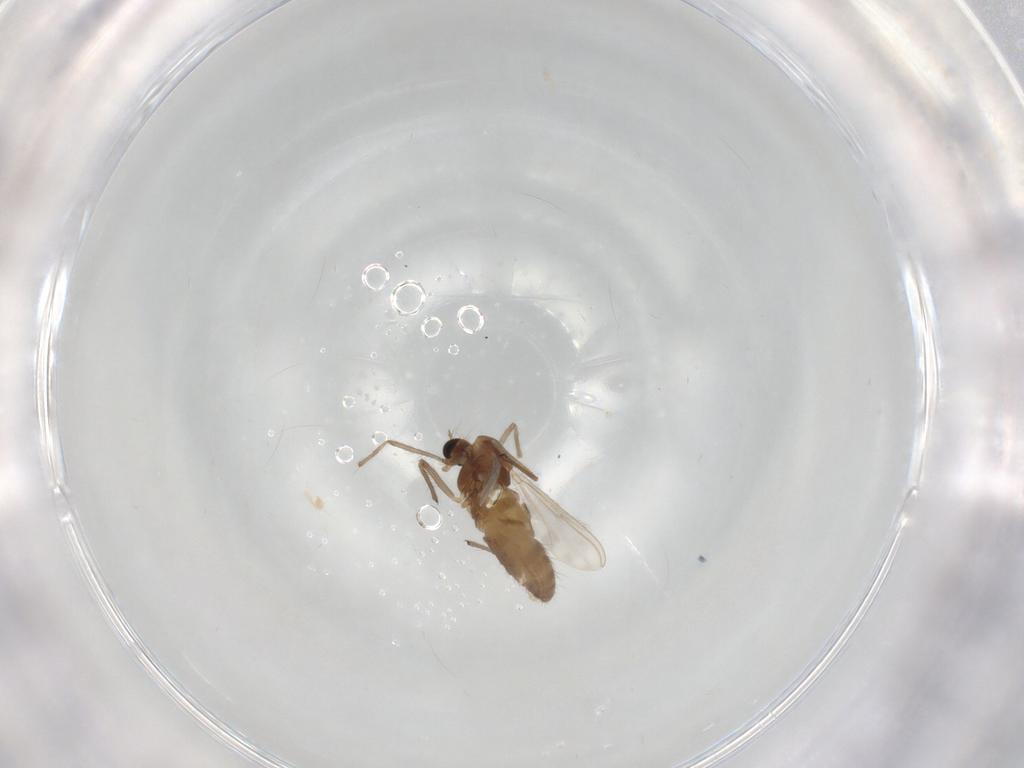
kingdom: Animalia
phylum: Arthropoda
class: Insecta
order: Diptera
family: Chironomidae
